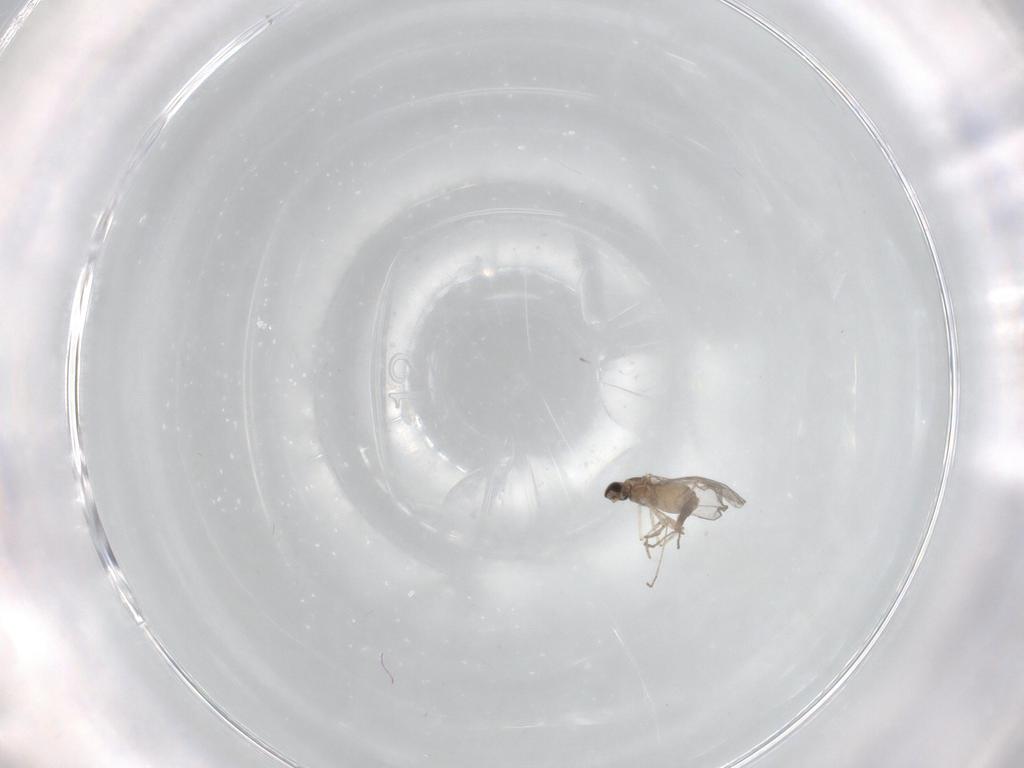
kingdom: Animalia
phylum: Arthropoda
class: Insecta
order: Diptera
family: Cecidomyiidae
